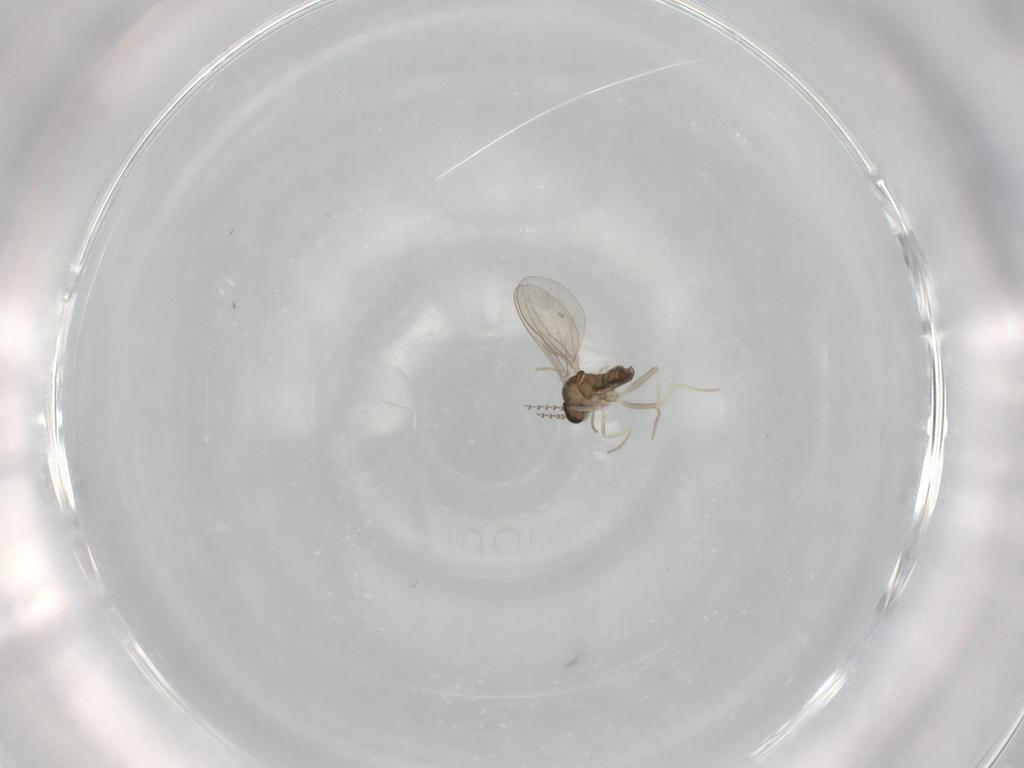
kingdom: Animalia
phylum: Arthropoda
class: Insecta
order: Diptera
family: Cecidomyiidae
